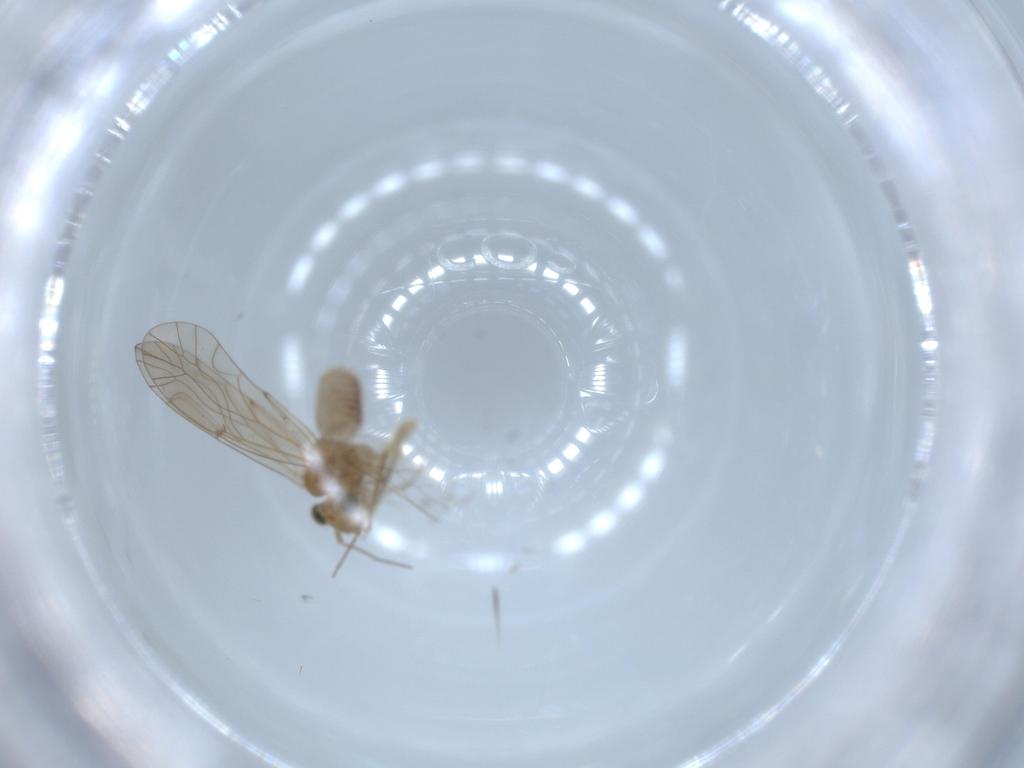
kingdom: Animalia
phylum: Arthropoda
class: Insecta
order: Psocodea
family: Lachesillidae
